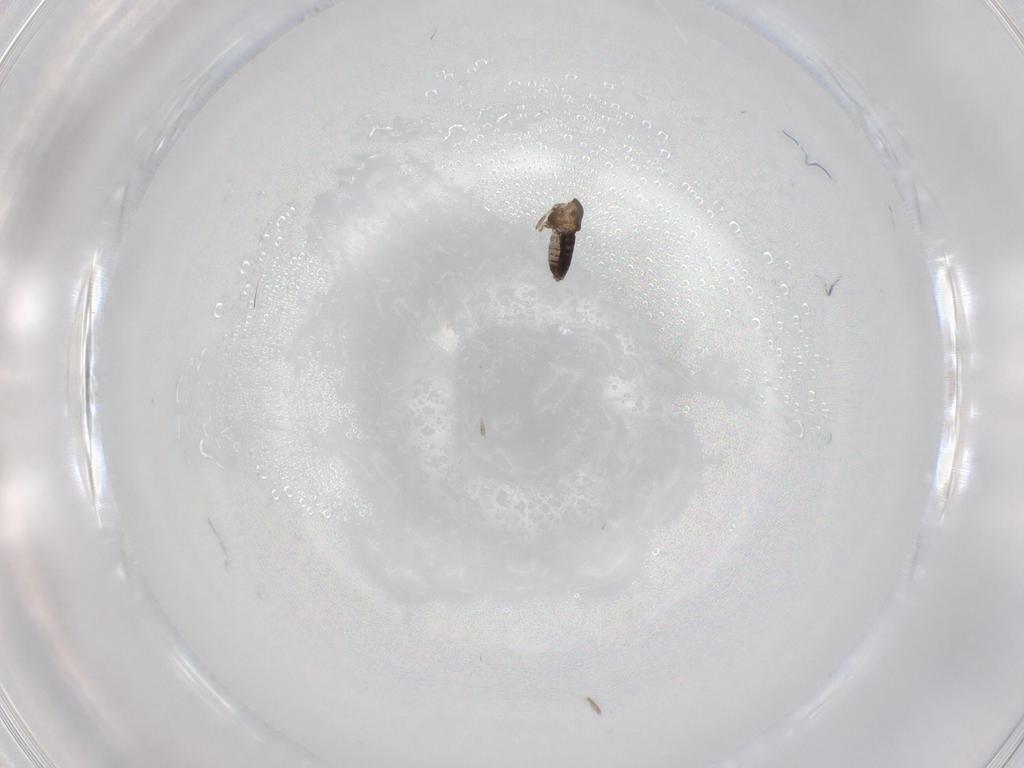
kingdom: Animalia
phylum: Arthropoda
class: Insecta
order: Diptera
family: Chironomidae
